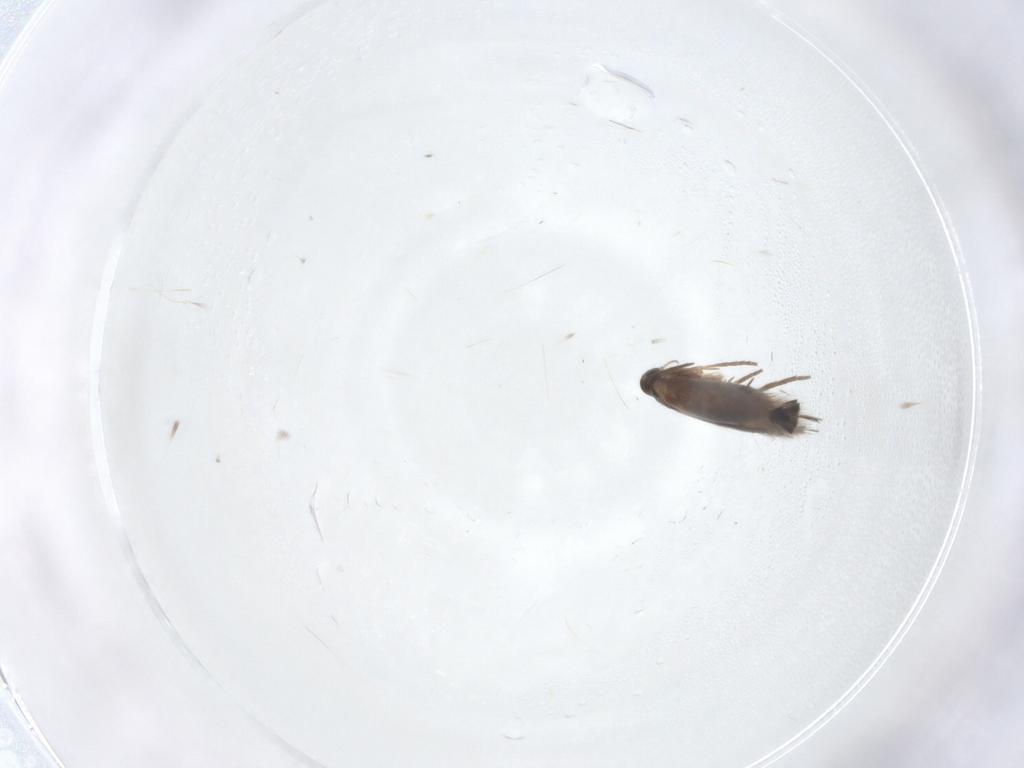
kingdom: Animalia
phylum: Arthropoda
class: Insecta
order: Lepidoptera
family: Heliozelidae
